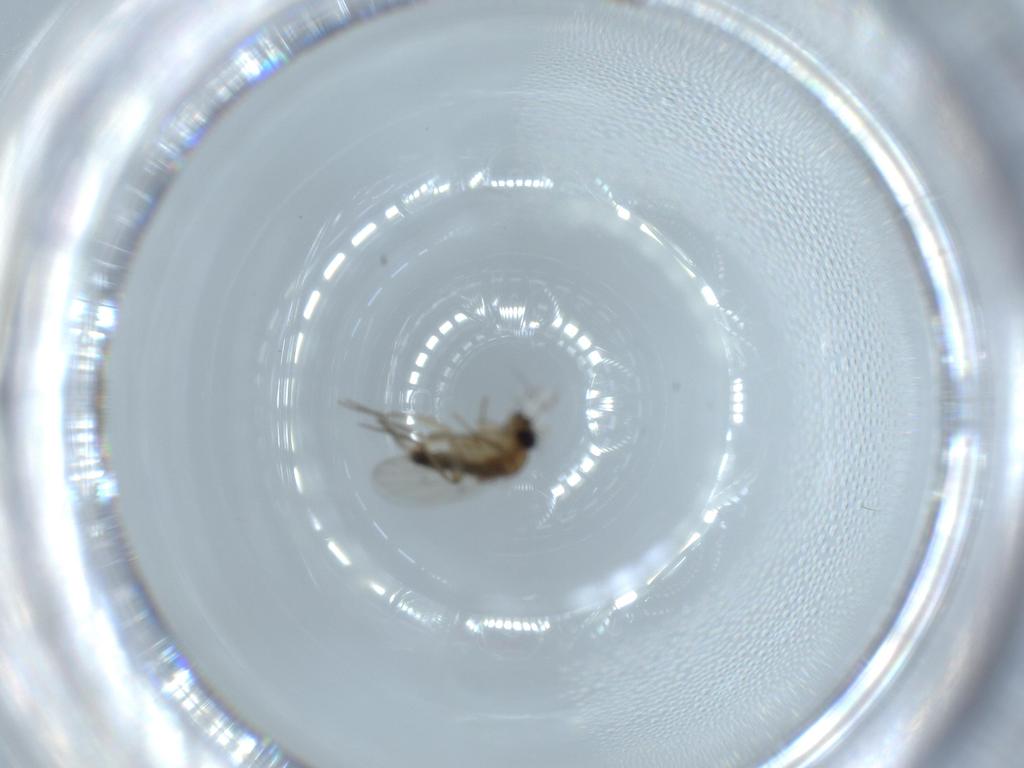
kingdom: Animalia
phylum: Arthropoda
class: Insecta
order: Diptera
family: Phoridae
